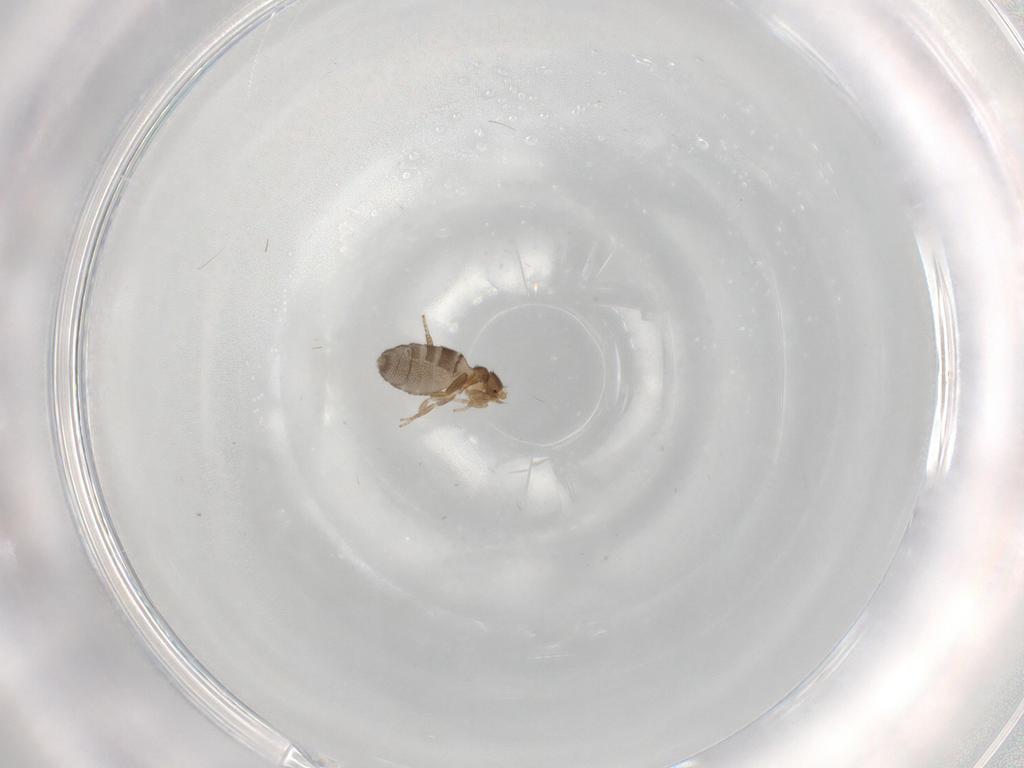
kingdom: Animalia
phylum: Arthropoda
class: Insecta
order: Diptera
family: Phoridae
